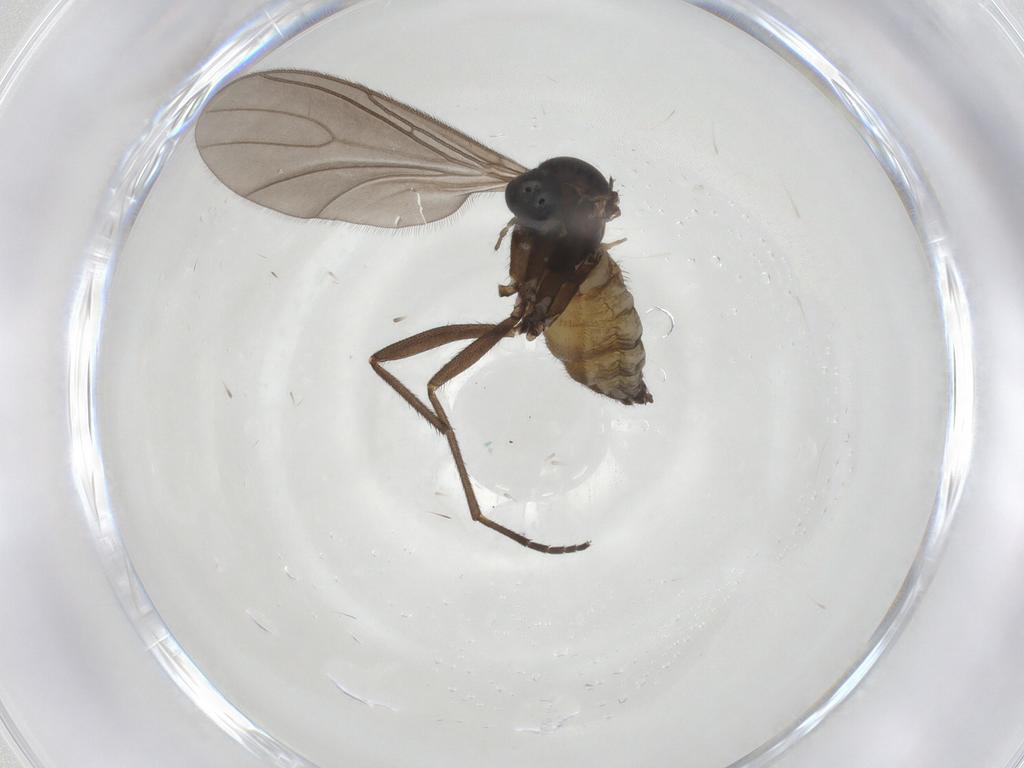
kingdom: Animalia
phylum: Arthropoda
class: Insecta
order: Diptera
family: Sciaridae
